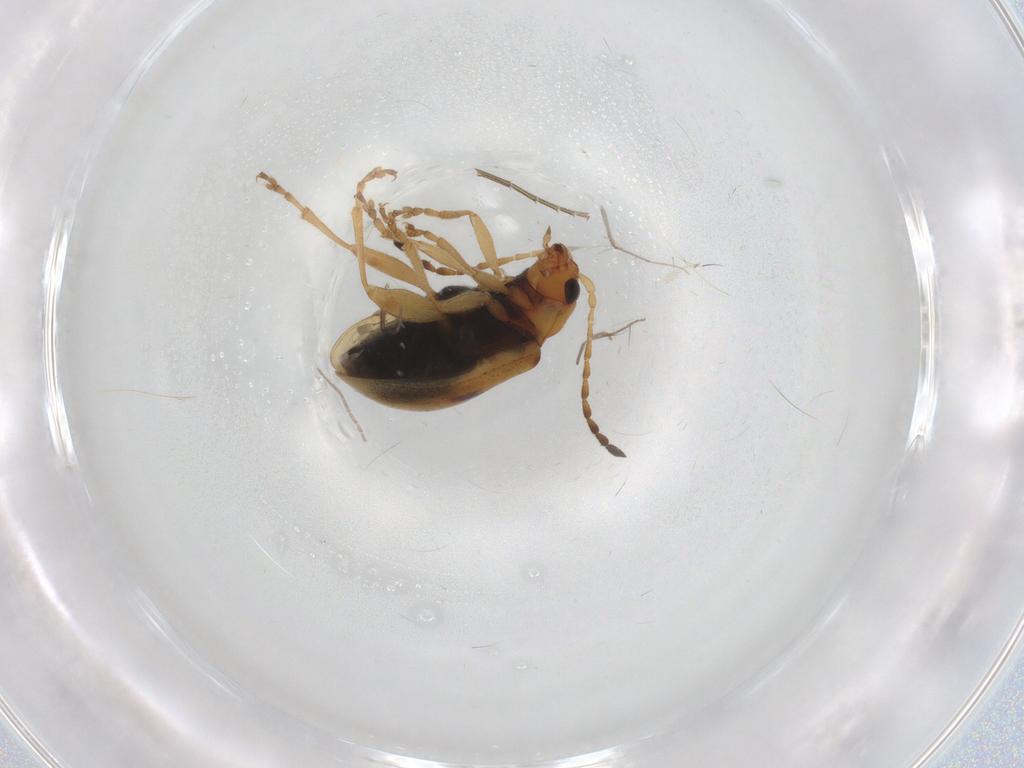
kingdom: Animalia
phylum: Arthropoda
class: Insecta
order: Coleoptera
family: Chrysomelidae
